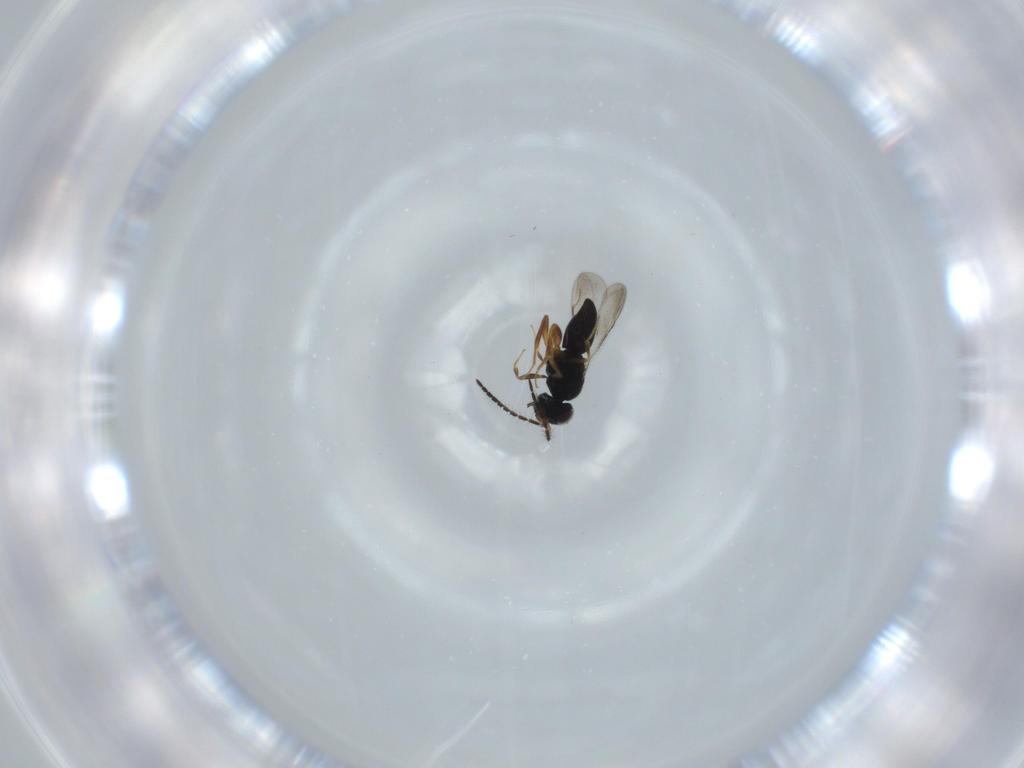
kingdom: Animalia
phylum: Arthropoda
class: Insecta
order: Hymenoptera
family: Ceraphronidae
